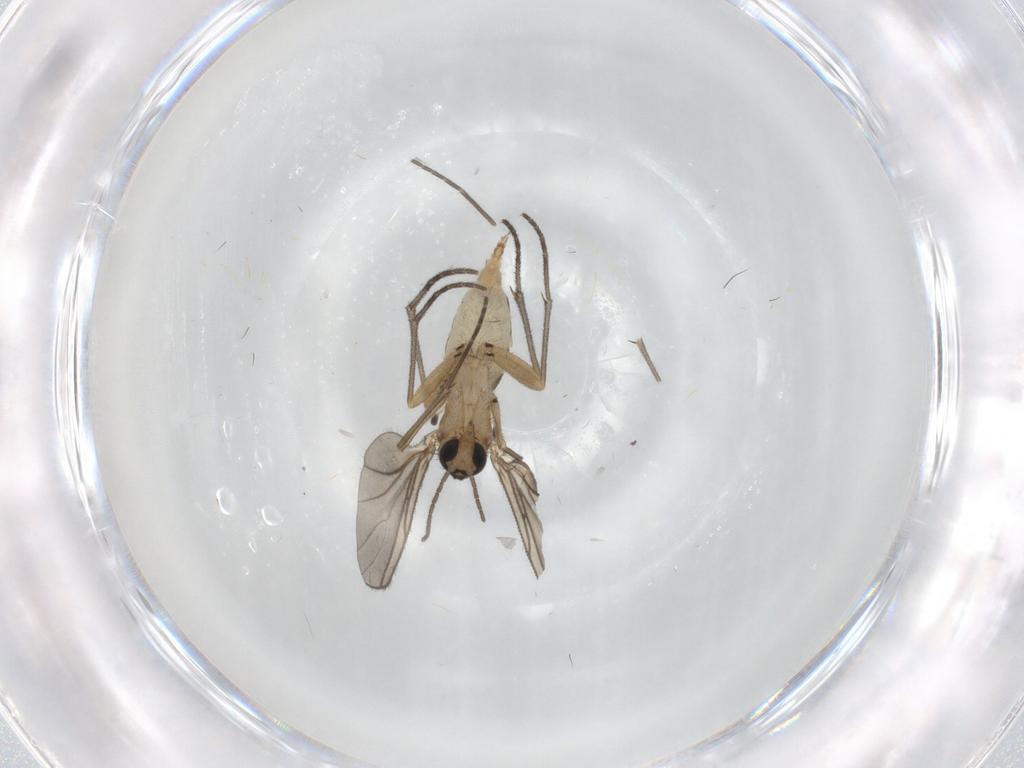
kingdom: Animalia
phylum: Arthropoda
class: Insecta
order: Diptera
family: Sciaridae
